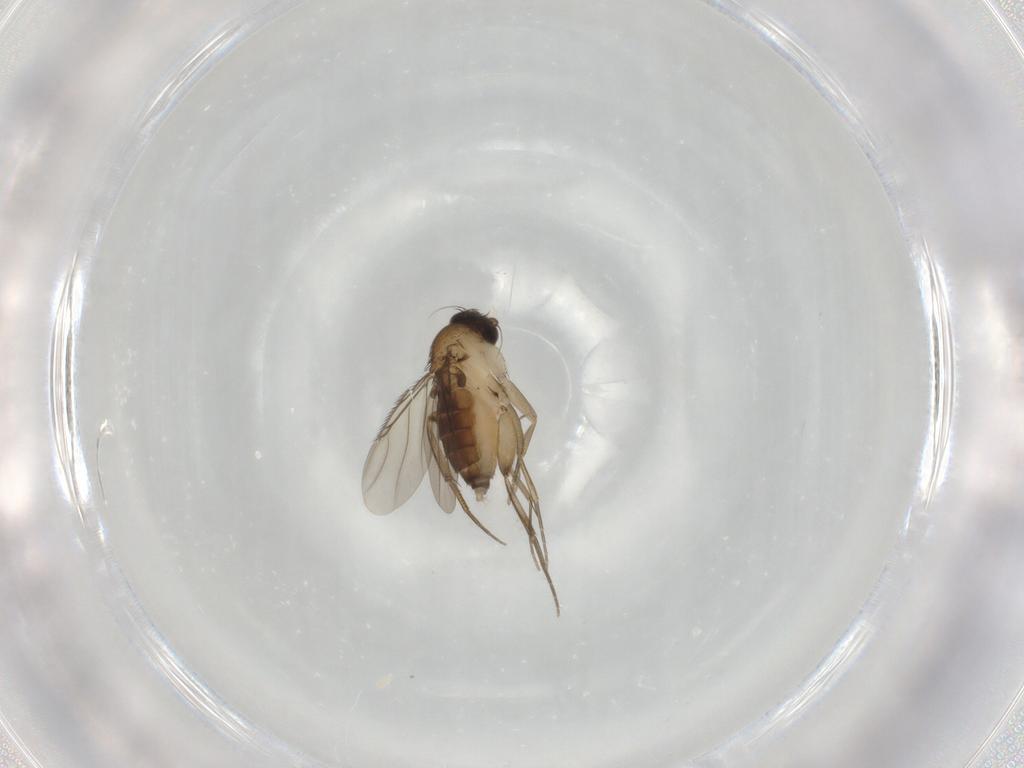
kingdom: Animalia
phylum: Arthropoda
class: Insecta
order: Diptera
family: Phoridae
